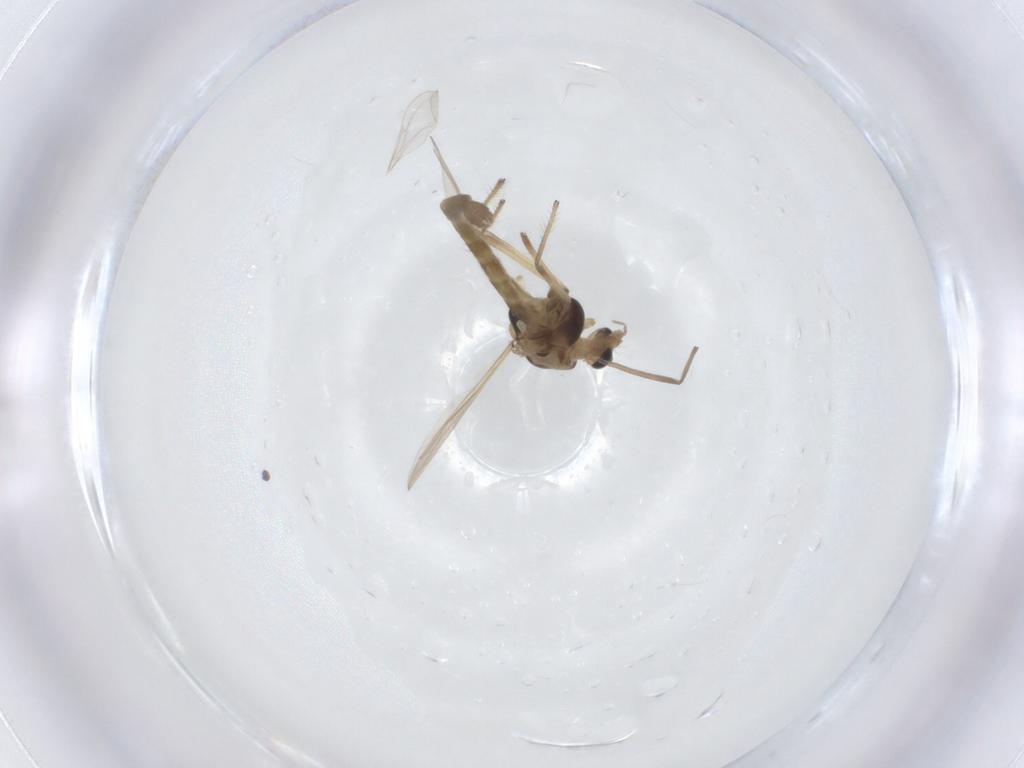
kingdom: Animalia
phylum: Arthropoda
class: Insecta
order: Diptera
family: Chironomidae
